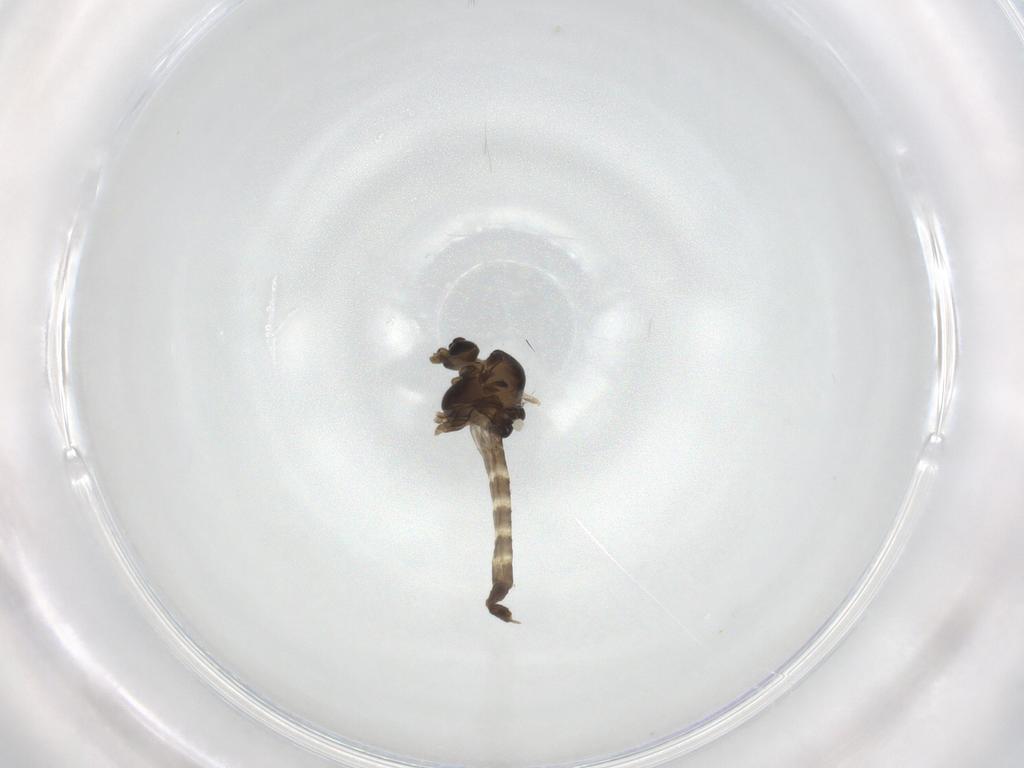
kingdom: Animalia
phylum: Arthropoda
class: Insecta
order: Diptera
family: Chironomidae
